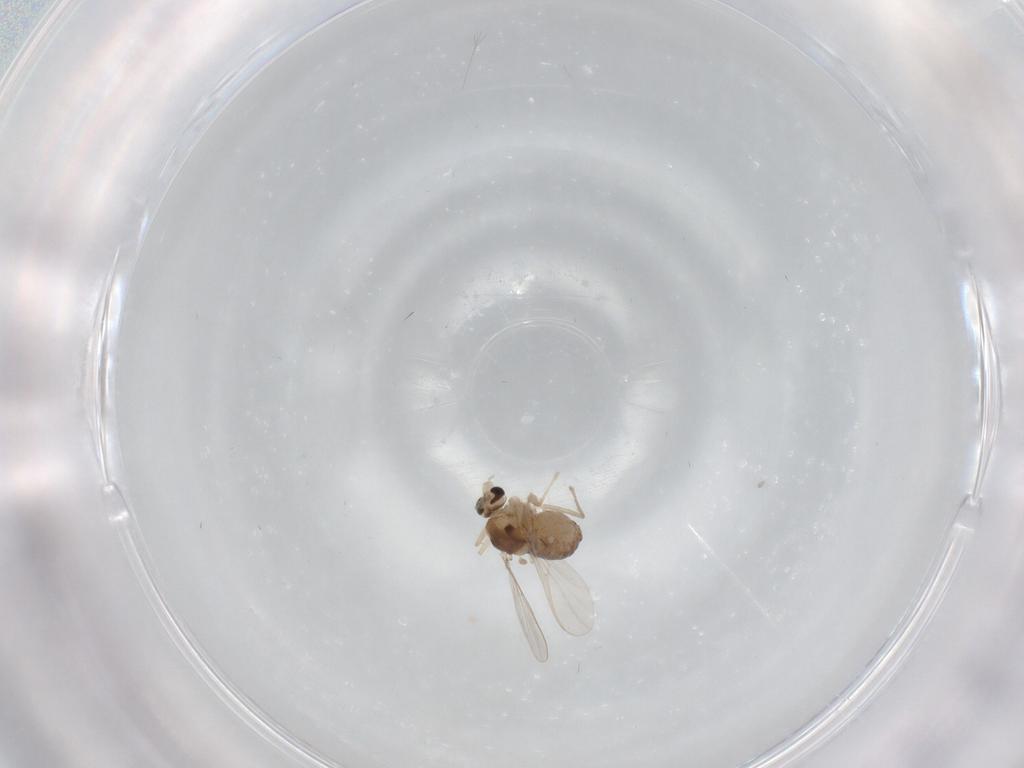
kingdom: Animalia
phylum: Arthropoda
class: Insecta
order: Diptera
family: Chironomidae
